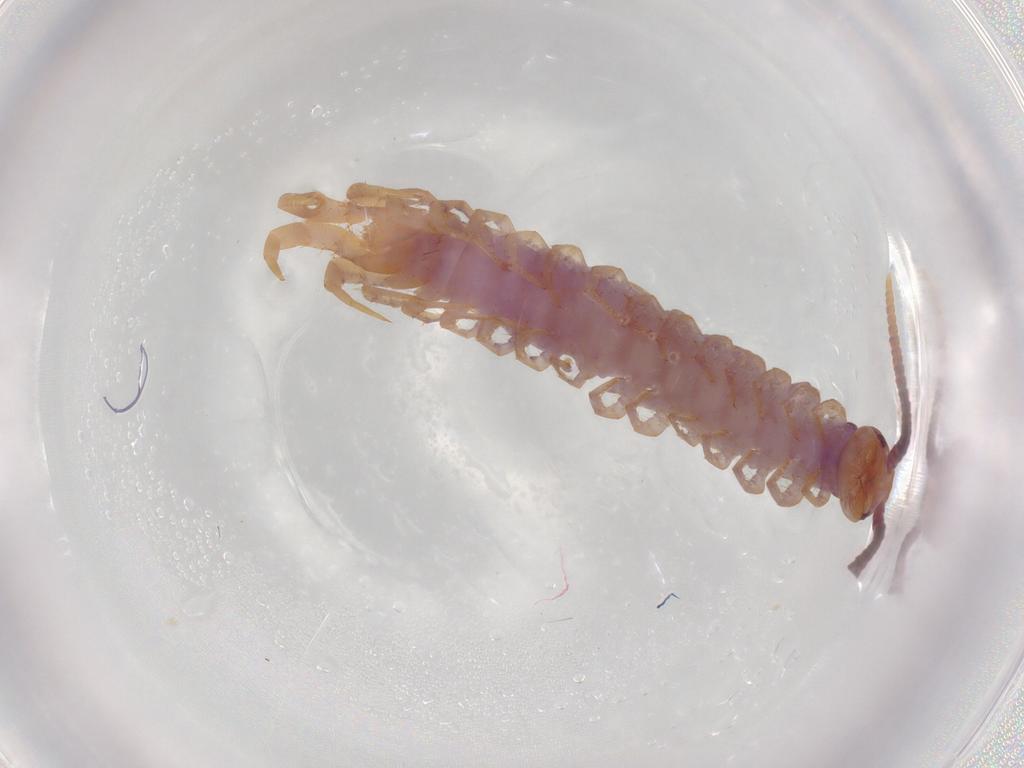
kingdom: Animalia
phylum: Arthropoda
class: Chilopoda
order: Lithobiomorpha
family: Lithobiidae
